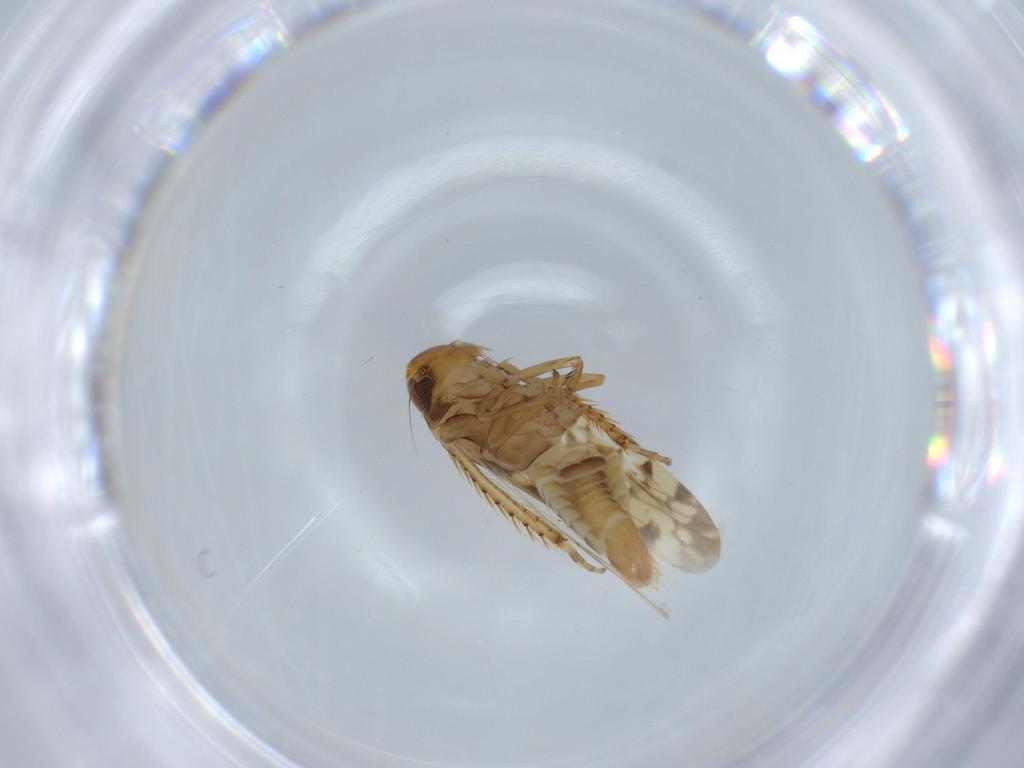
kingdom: Animalia
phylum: Arthropoda
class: Insecta
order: Hemiptera
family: Cicadellidae
